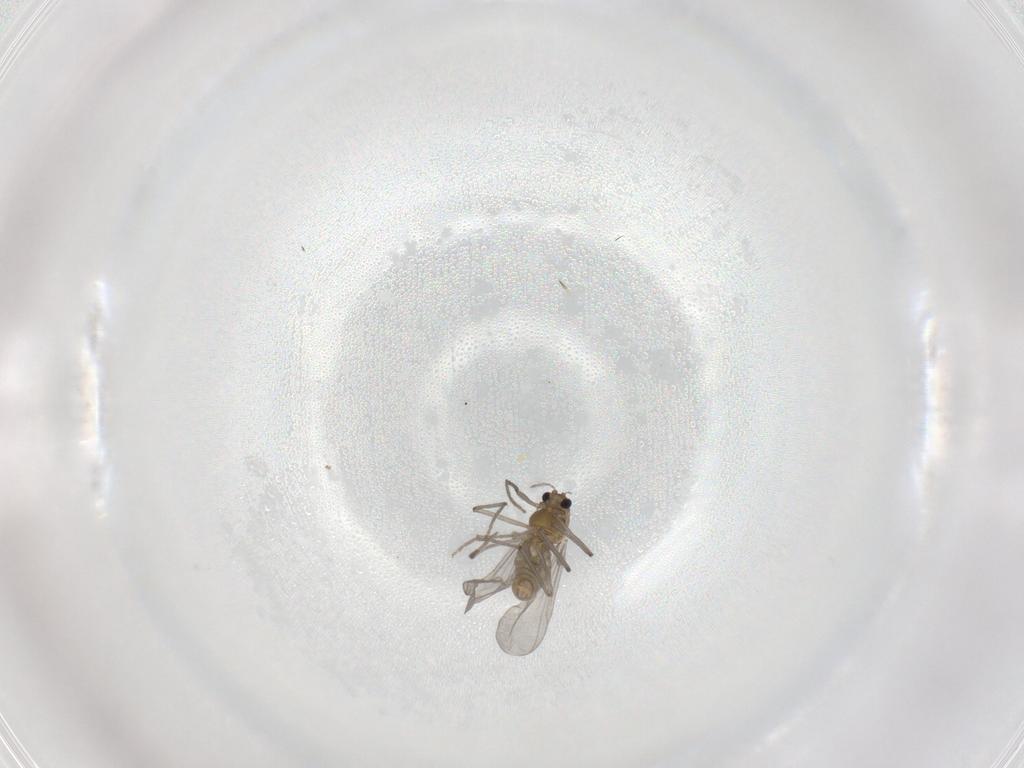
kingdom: Animalia
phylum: Arthropoda
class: Insecta
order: Diptera
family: Chironomidae
